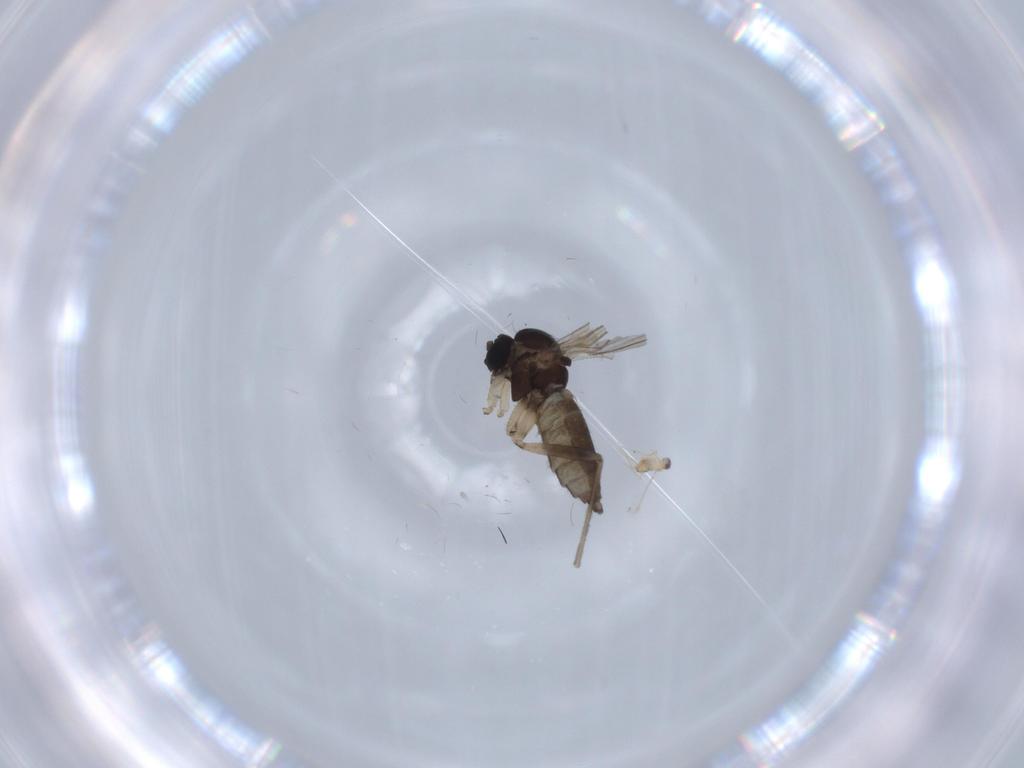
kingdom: Animalia
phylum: Arthropoda
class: Insecta
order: Diptera
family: Sciaridae
